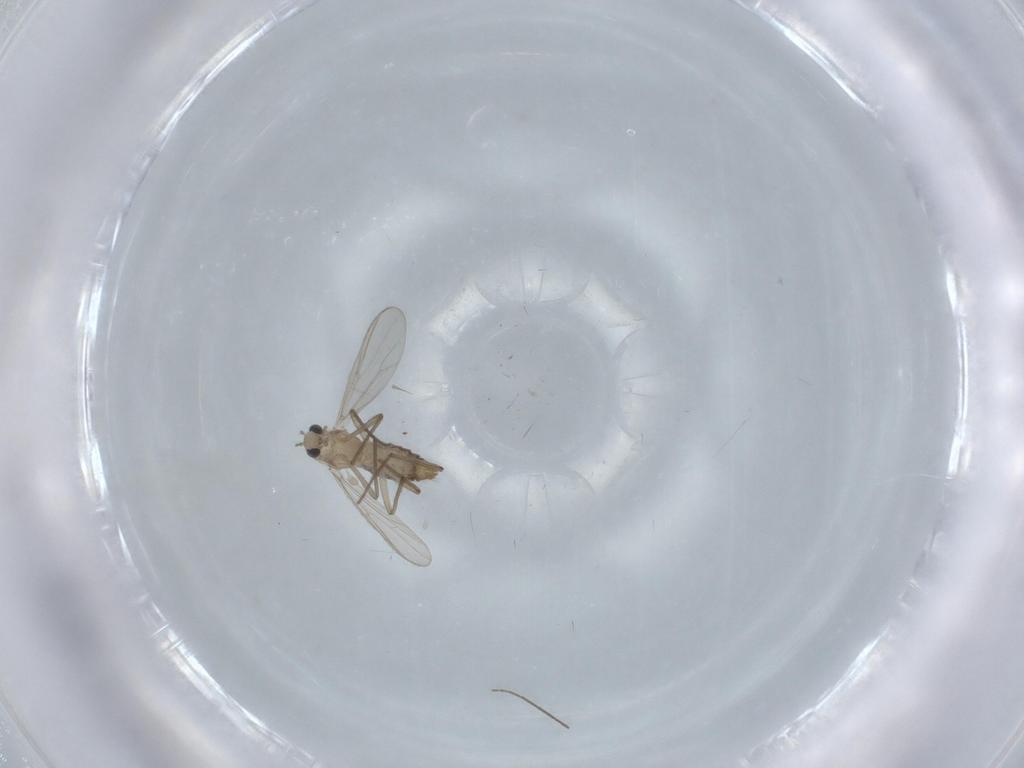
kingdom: Animalia
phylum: Arthropoda
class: Insecta
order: Diptera
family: Chironomidae
